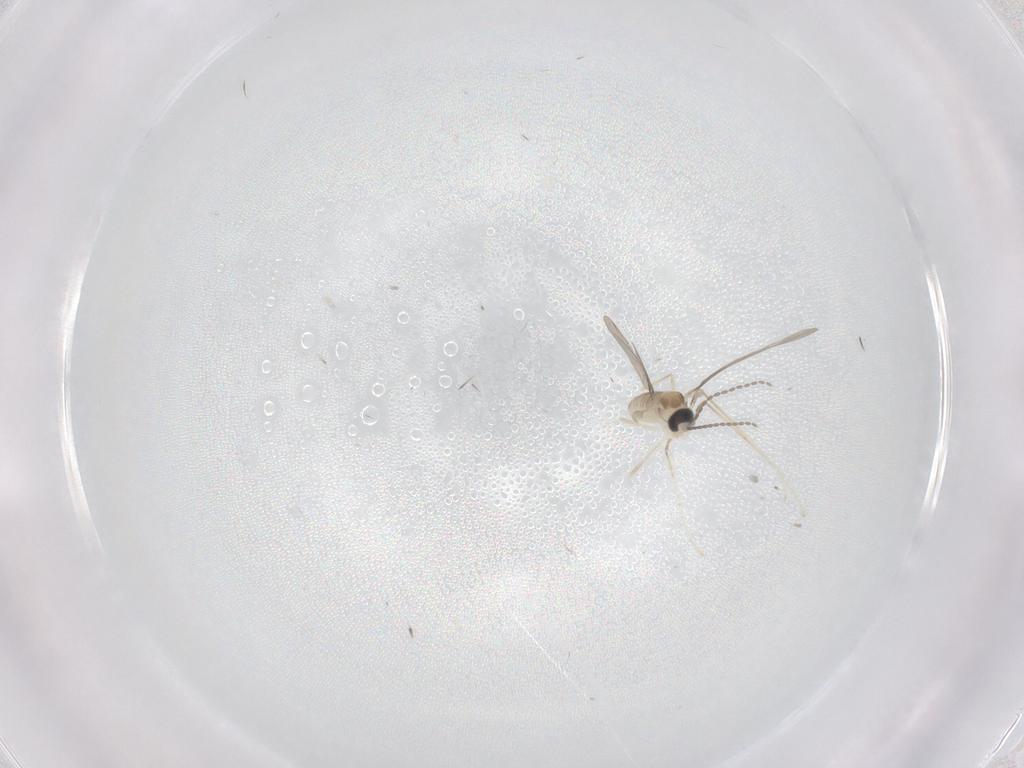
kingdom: Animalia
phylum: Arthropoda
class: Insecta
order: Diptera
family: Cecidomyiidae
